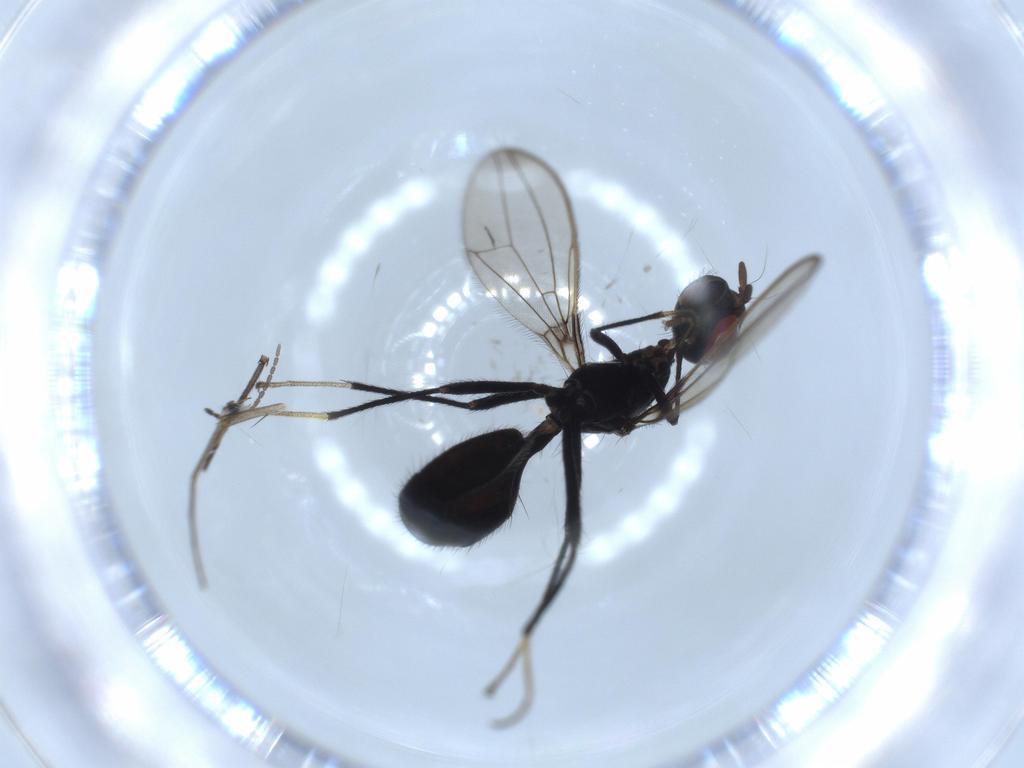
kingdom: Animalia
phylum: Arthropoda
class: Insecta
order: Diptera
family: Richardiidae
